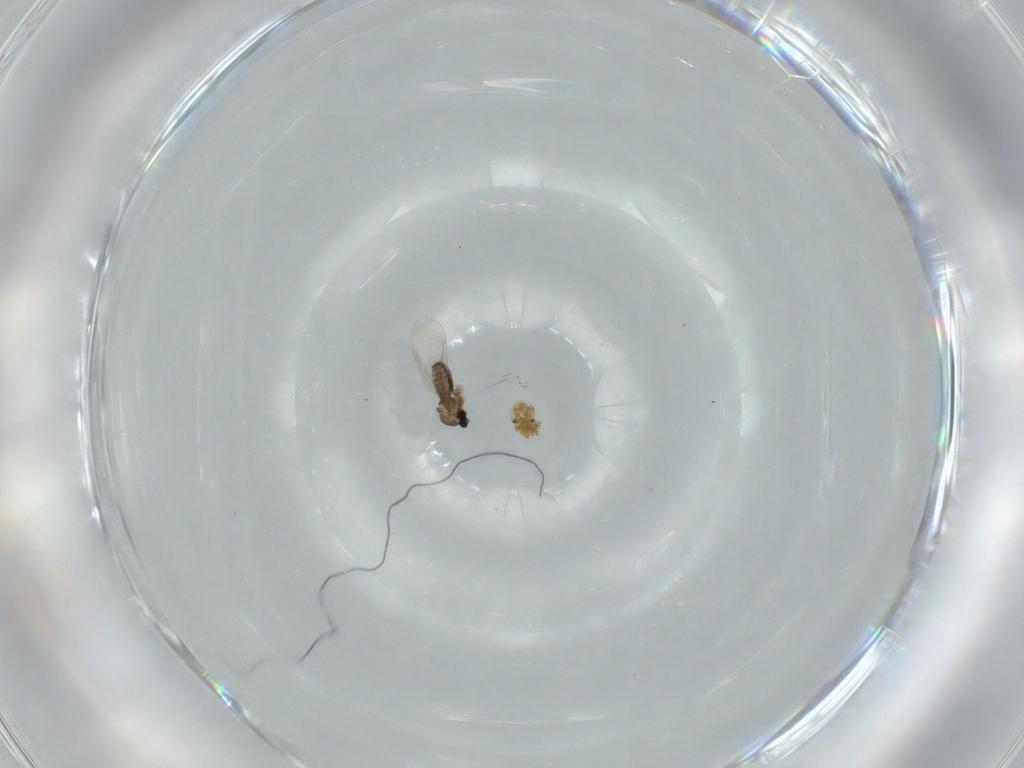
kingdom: Animalia
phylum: Arthropoda
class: Insecta
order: Diptera
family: Cecidomyiidae
